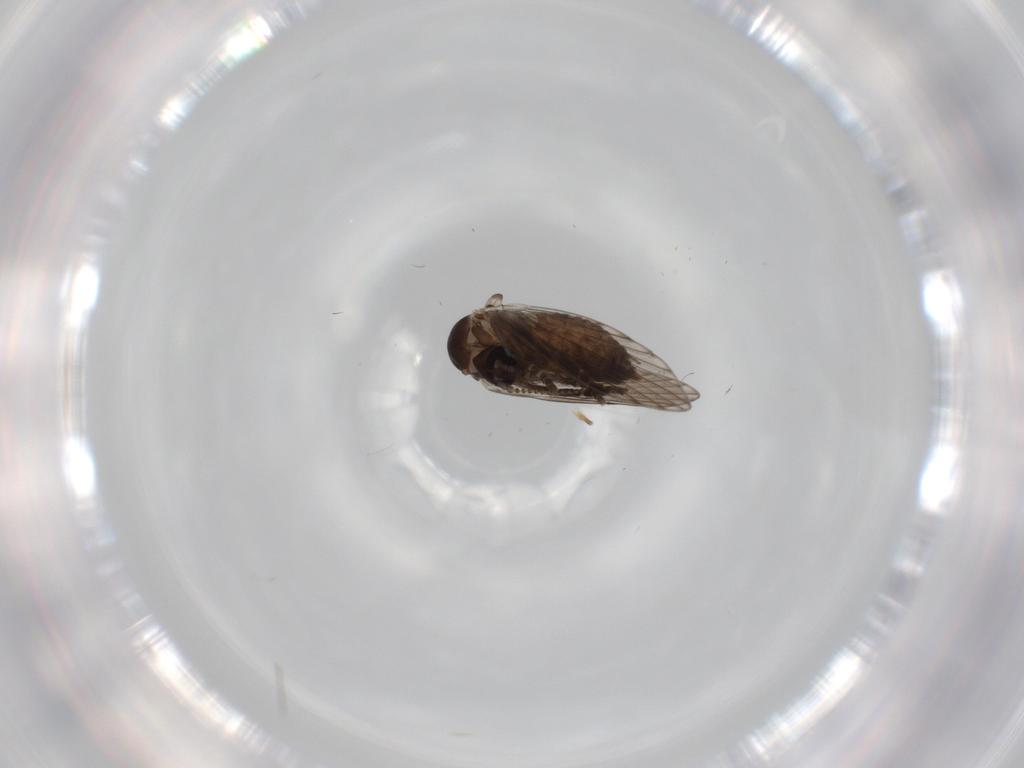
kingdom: Animalia
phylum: Arthropoda
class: Insecta
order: Diptera
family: Psychodidae
